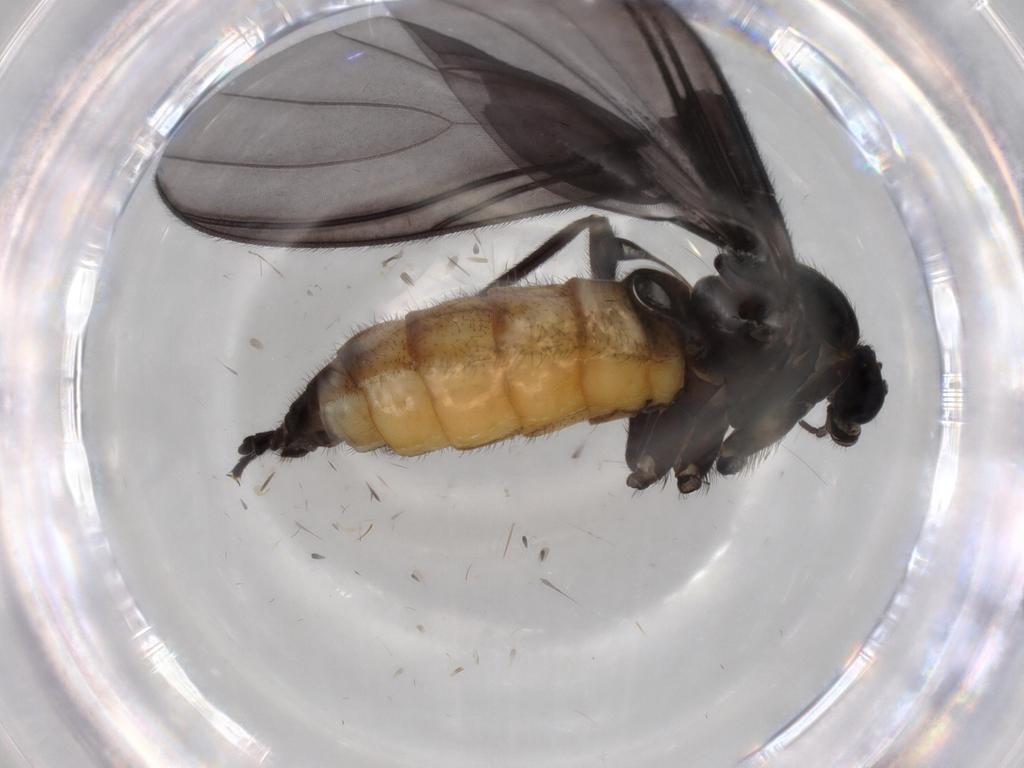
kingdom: Animalia
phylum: Arthropoda
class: Insecta
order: Diptera
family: Cecidomyiidae
